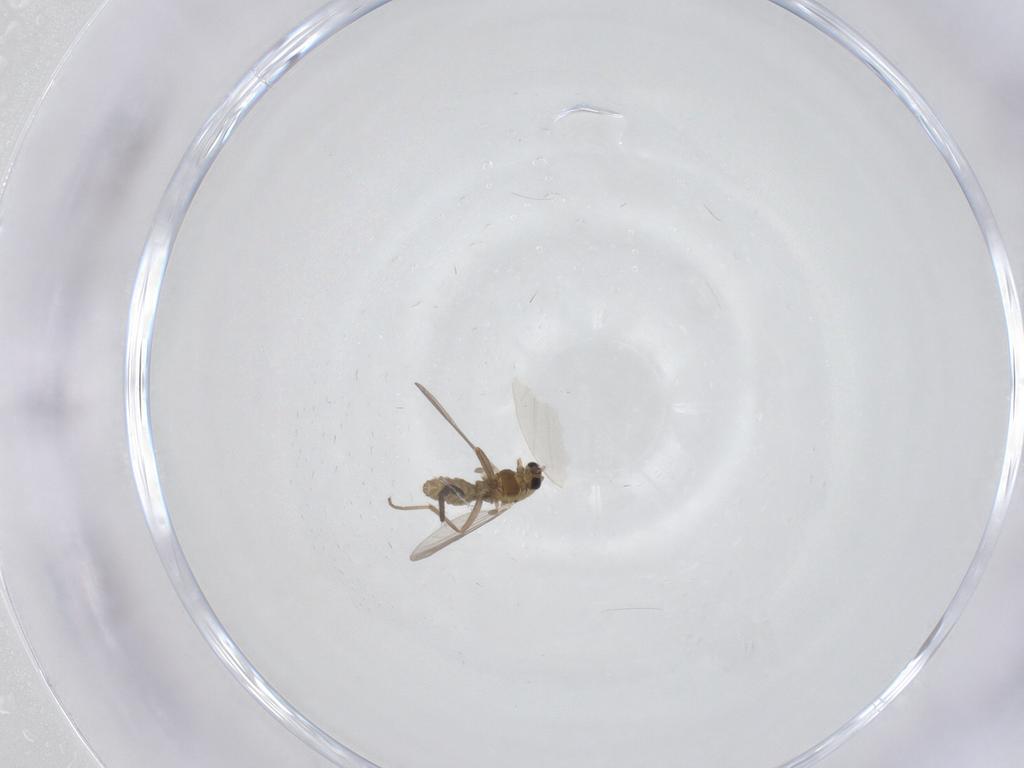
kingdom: Animalia
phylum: Arthropoda
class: Insecta
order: Diptera
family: Chironomidae
